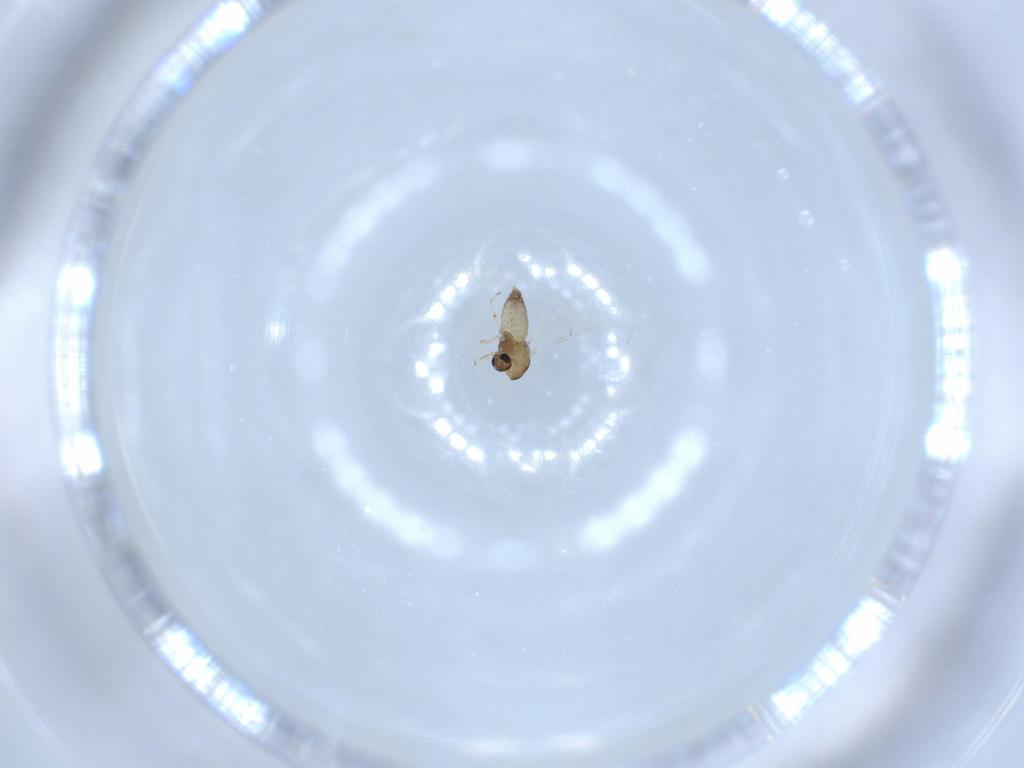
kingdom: Animalia
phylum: Arthropoda
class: Insecta
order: Diptera
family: Chironomidae
